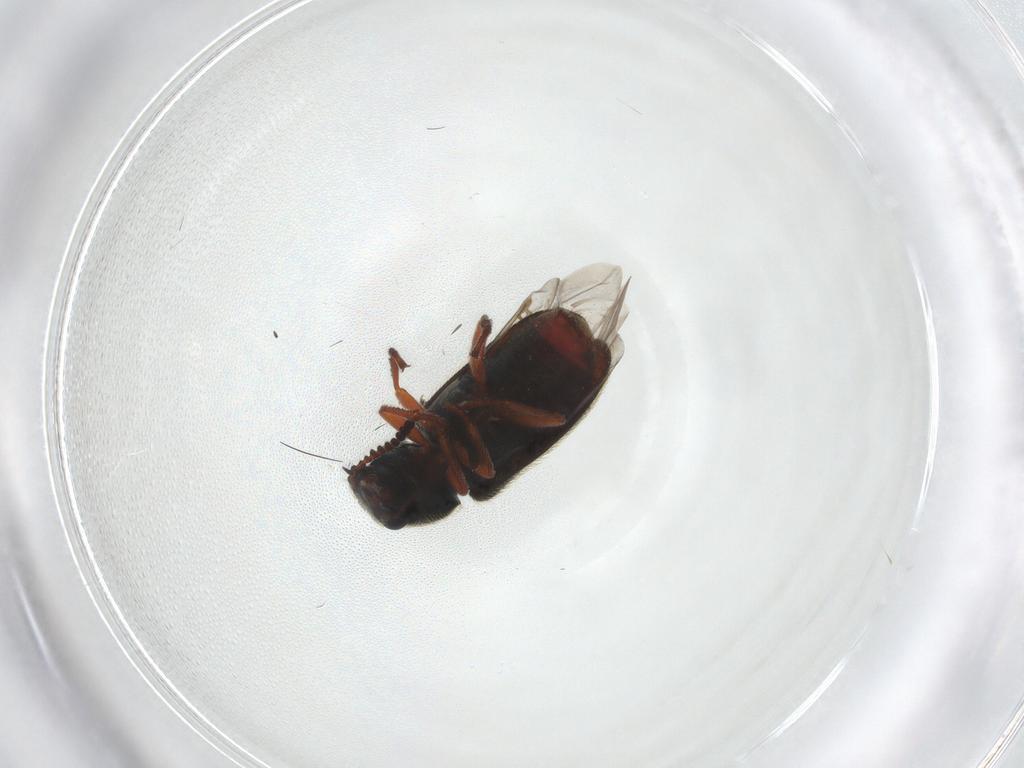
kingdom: Animalia
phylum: Arthropoda
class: Insecta
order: Coleoptera
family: Melyridae
